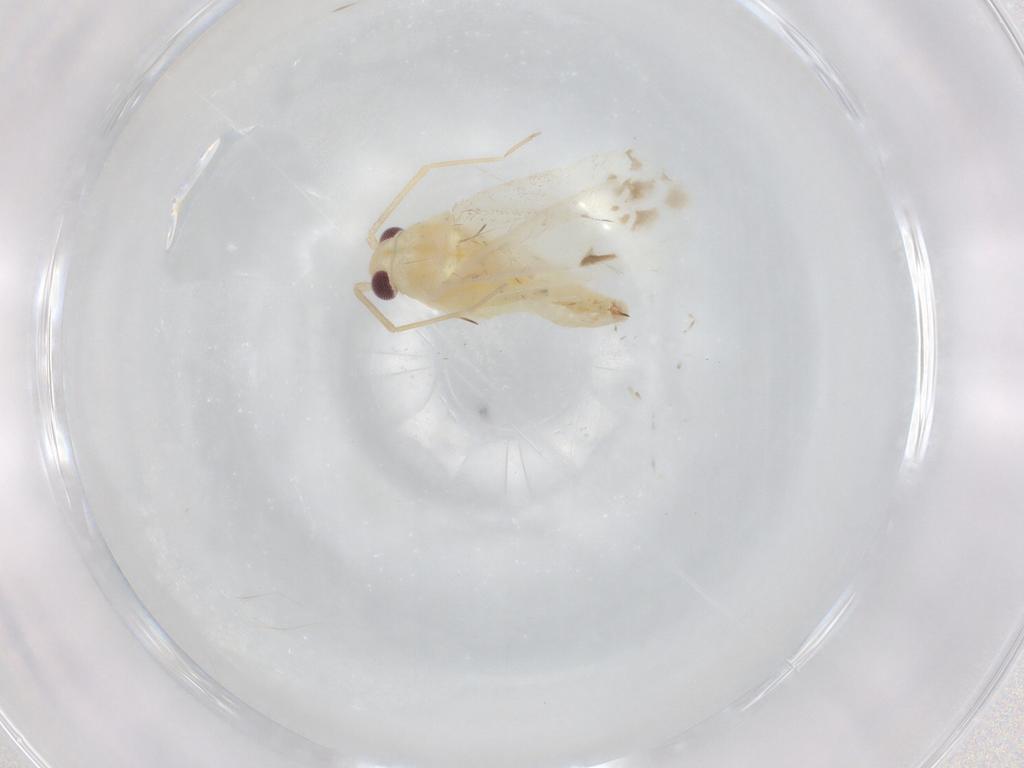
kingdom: Animalia
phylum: Arthropoda
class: Insecta
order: Hemiptera
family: Miridae
